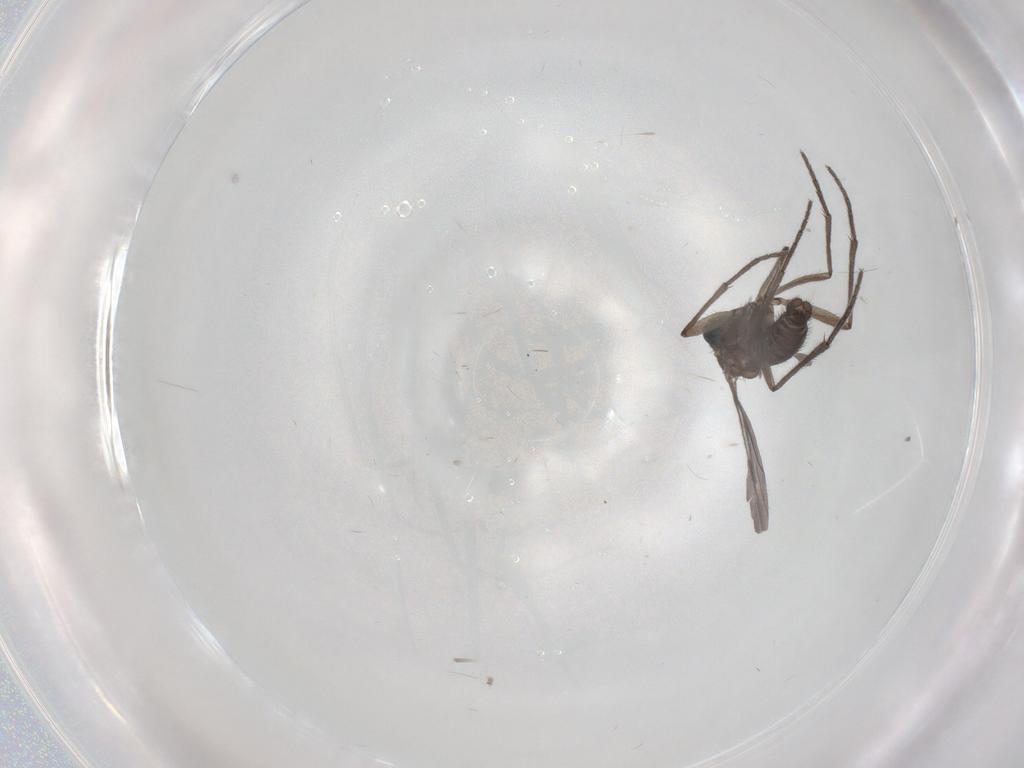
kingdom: Animalia
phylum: Arthropoda
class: Insecta
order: Diptera
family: Sciaridae
